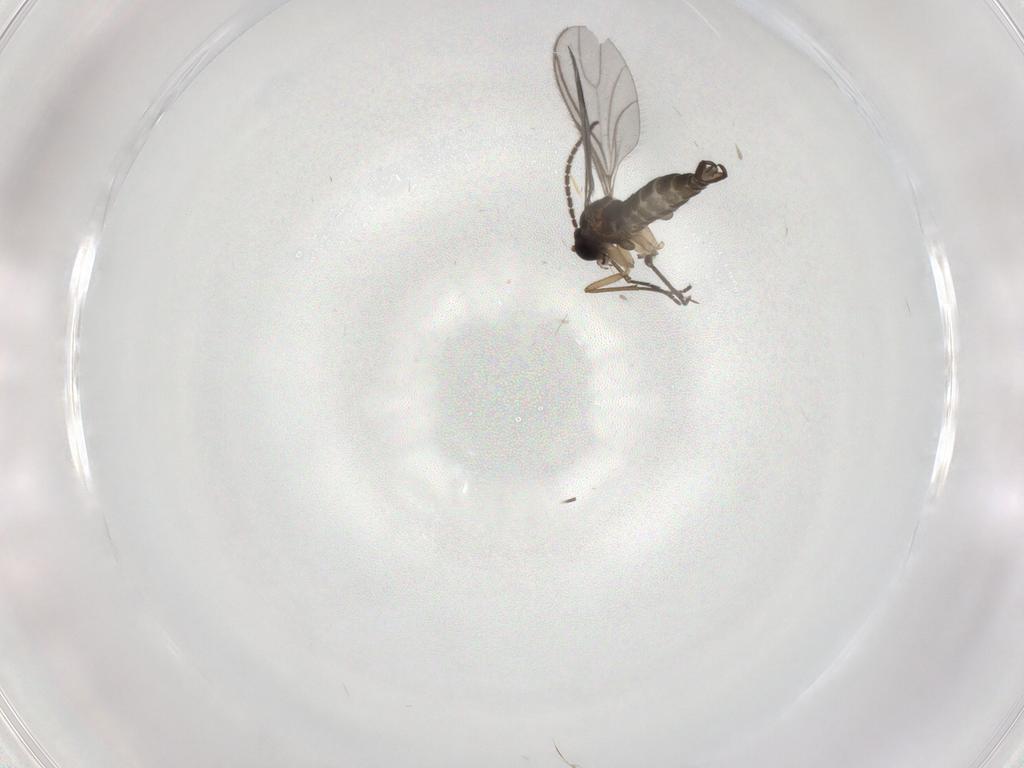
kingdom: Animalia
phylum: Arthropoda
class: Insecta
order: Diptera
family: Sciaridae
